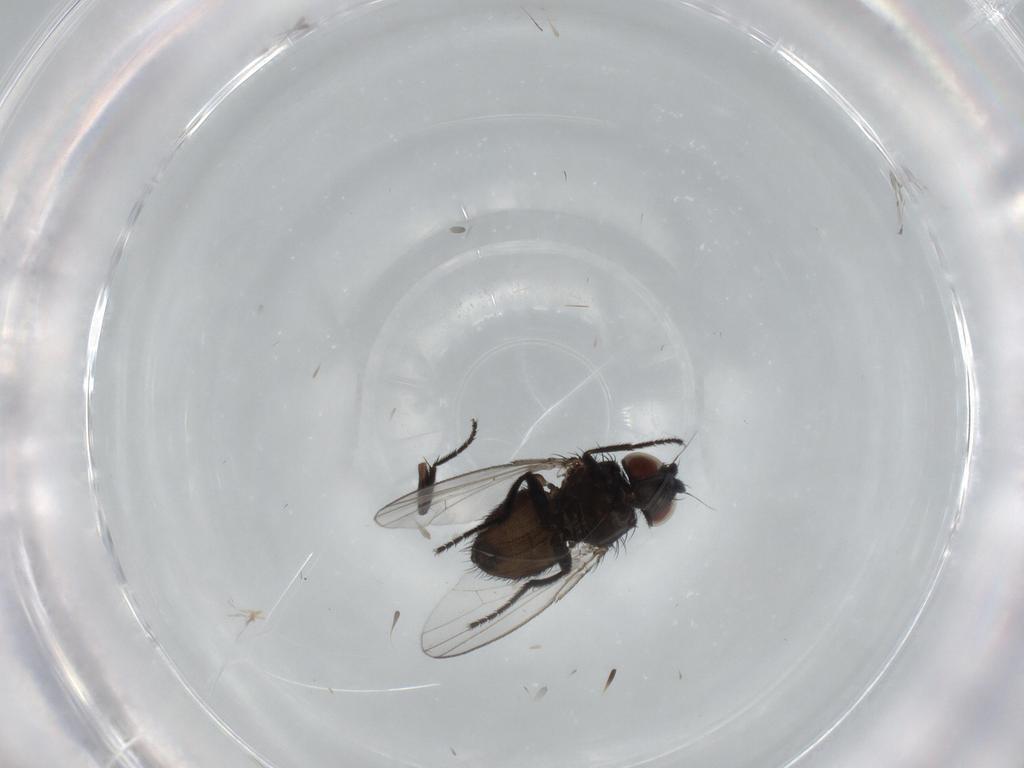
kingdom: Animalia
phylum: Arthropoda
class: Insecta
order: Diptera
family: Milichiidae
